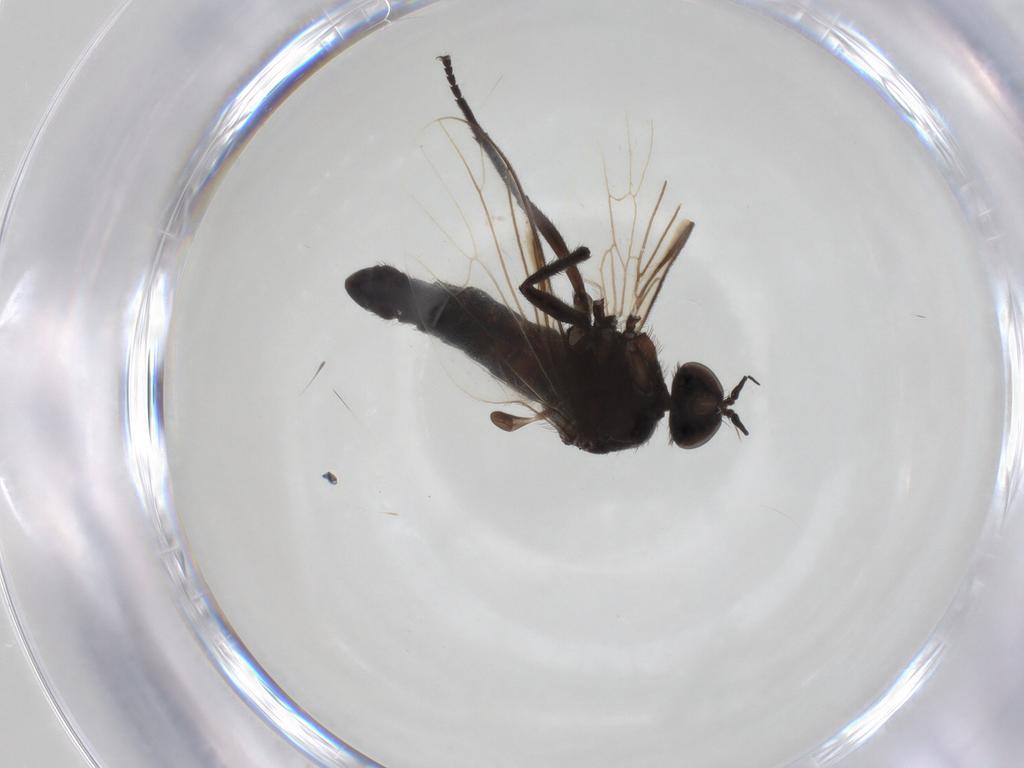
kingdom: Animalia
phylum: Arthropoda
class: Insecta
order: Diptera
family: Empididae
